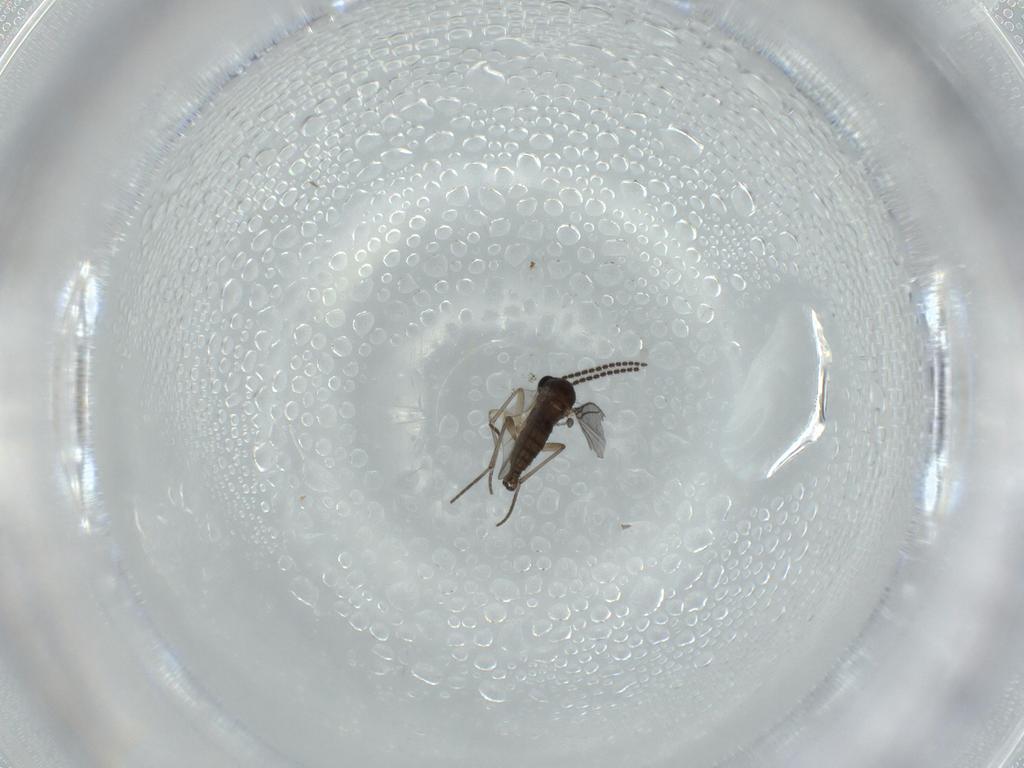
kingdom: Animalia
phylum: Arthropoda
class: Insecta
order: Diptera
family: Sciaridae
